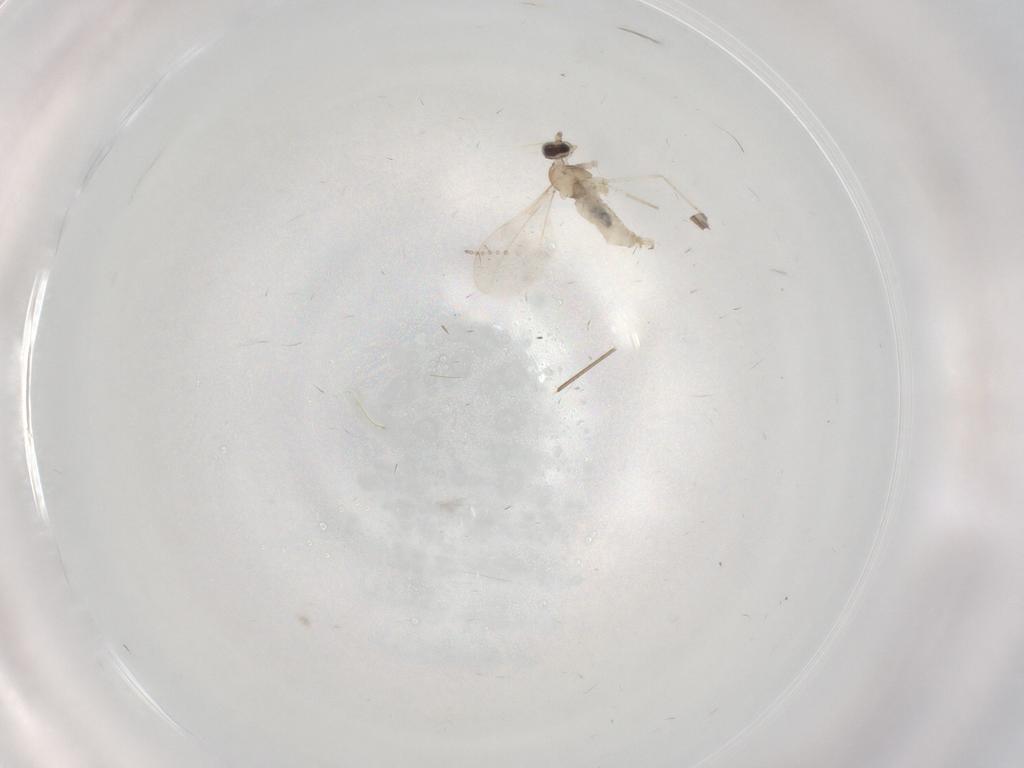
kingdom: Animalia
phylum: Arthropoda
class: Insecta
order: Diptera
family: Psychodidae
